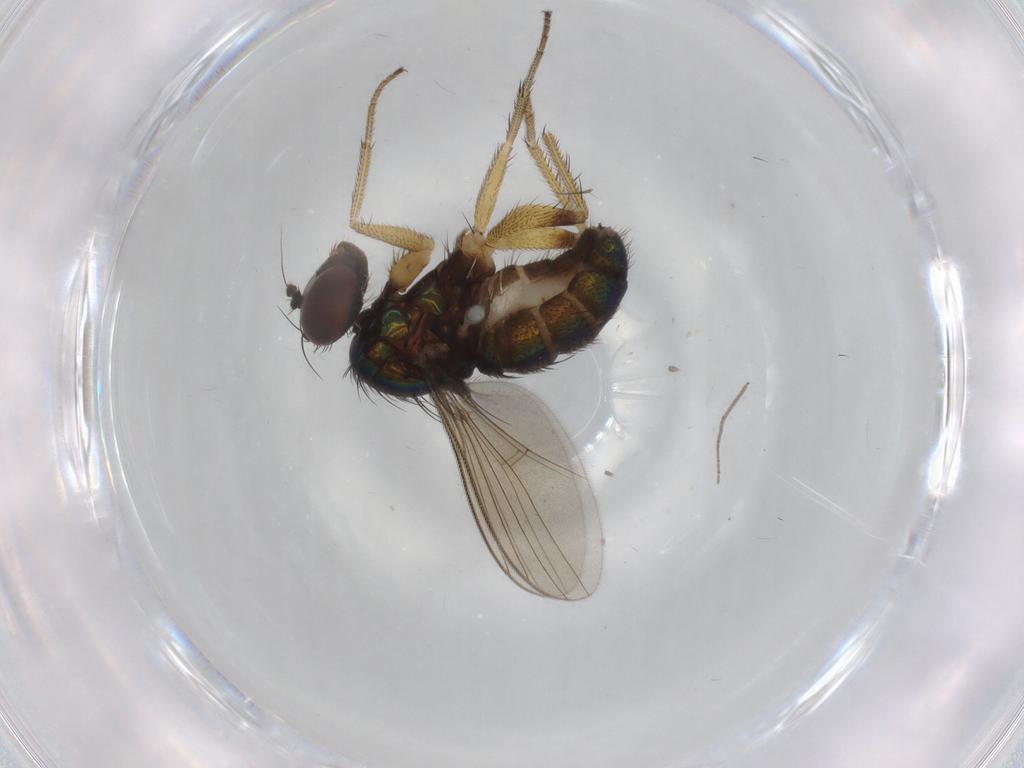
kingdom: Animalia
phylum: Arthropoda
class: Insecta
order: Diptera
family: Dolichopodidae
